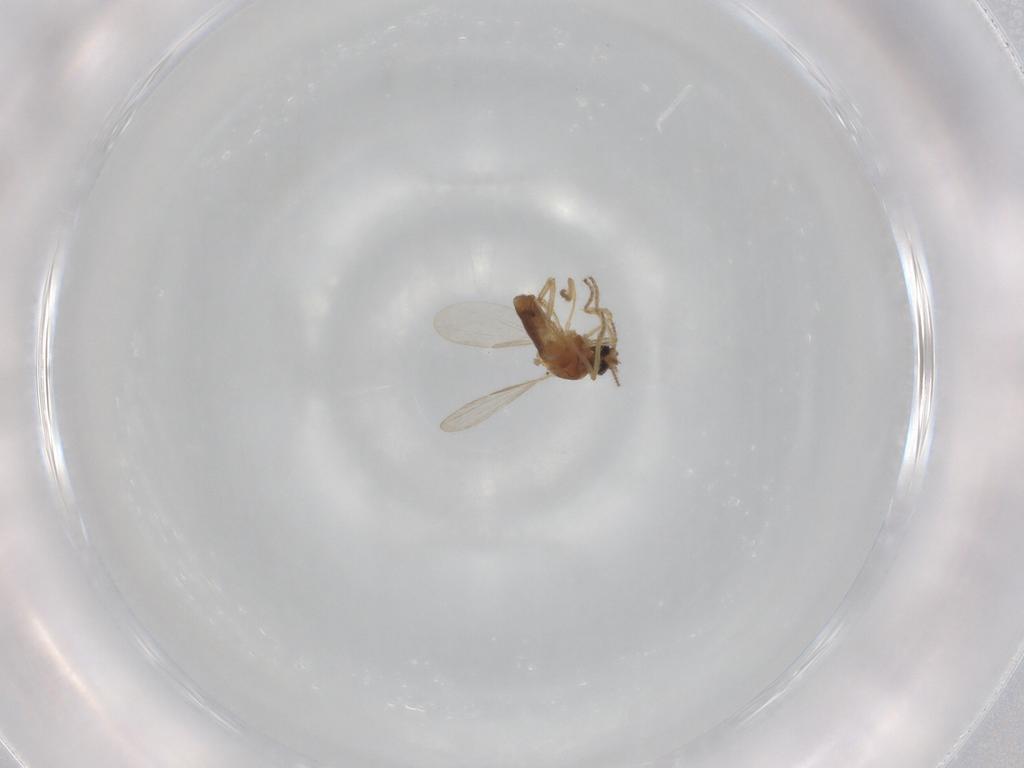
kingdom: Animalia
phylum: Arthropoda
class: Insecta
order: Diptera
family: Ceratopogonidae
